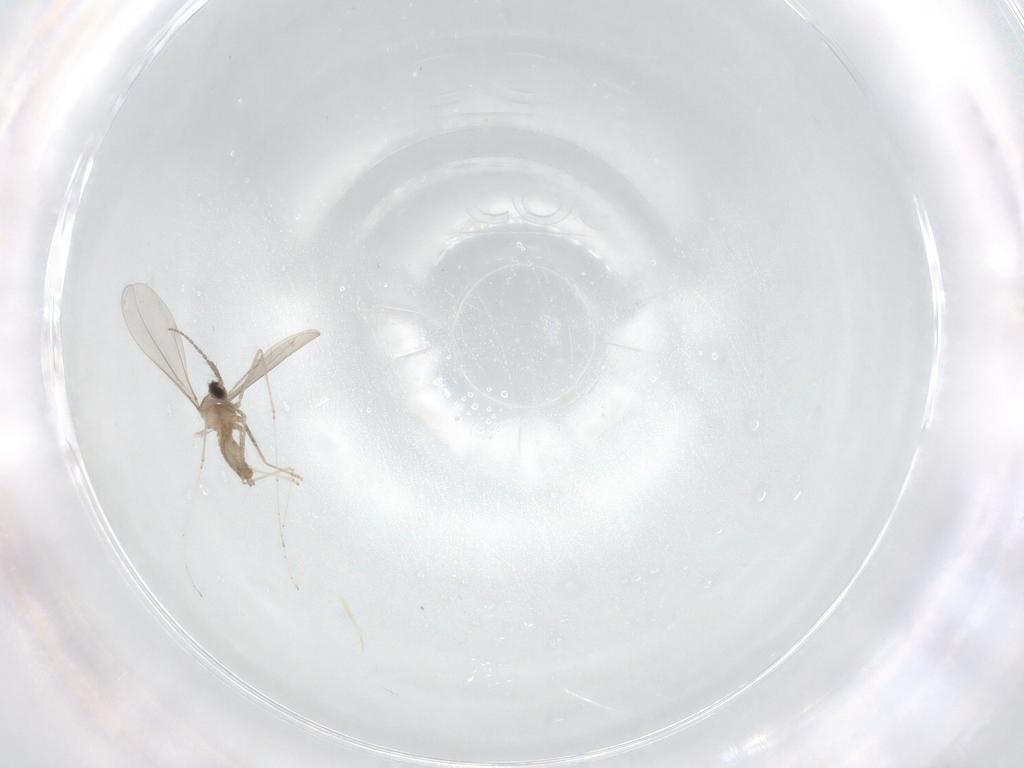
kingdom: Animalia
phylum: Arthropoda
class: Insecta
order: Diptera
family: Cecidomyiidae
